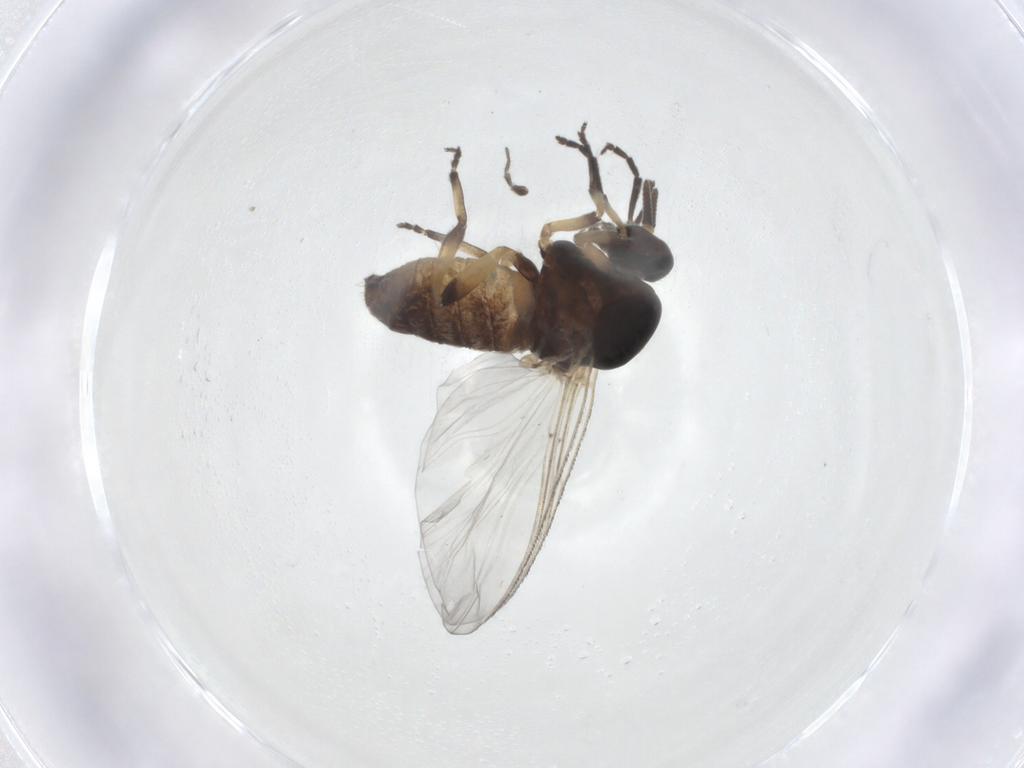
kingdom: Animalia
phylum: Arthropoda
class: Insecta
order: Diptera
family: Simuliidae
